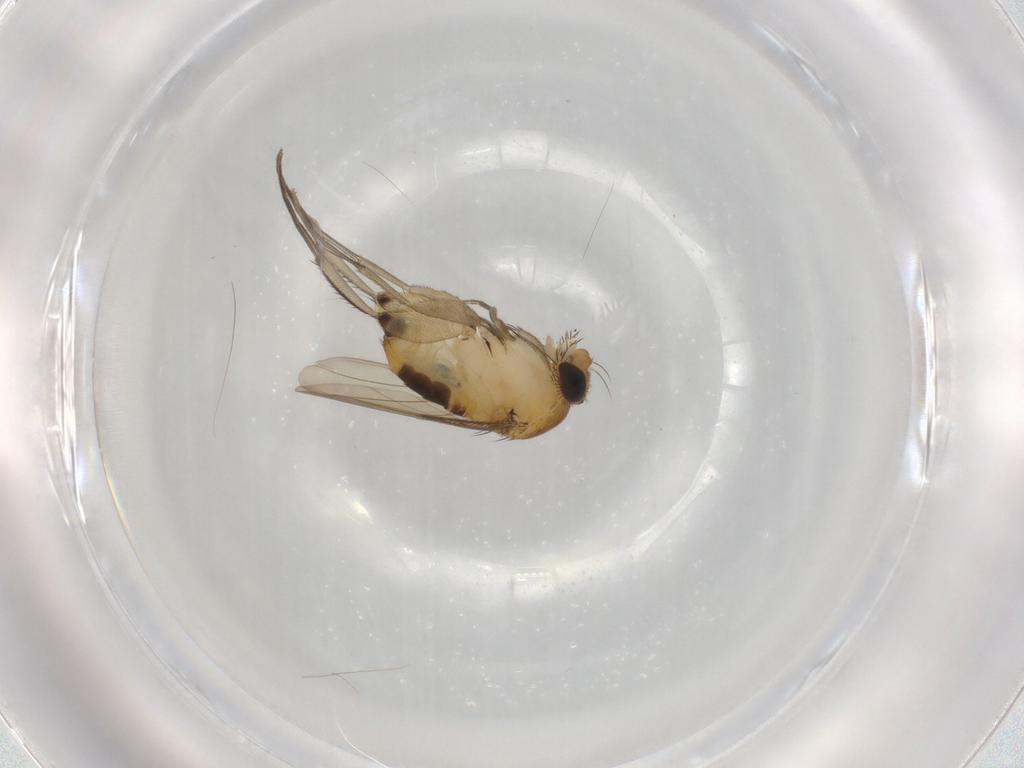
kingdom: Animalia
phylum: Arthropoda
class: Insecta
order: Diptera
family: Phoridae
